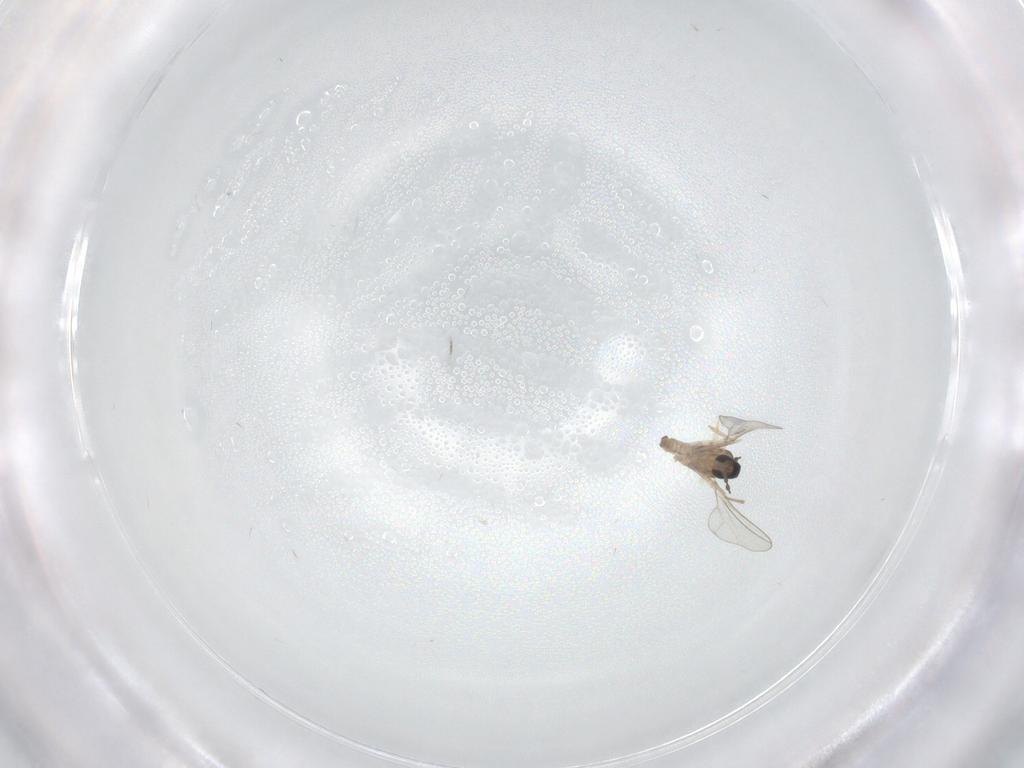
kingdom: Animalia
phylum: Arthropoda
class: Insecta
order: Diptera
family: Cecidomyiidae
